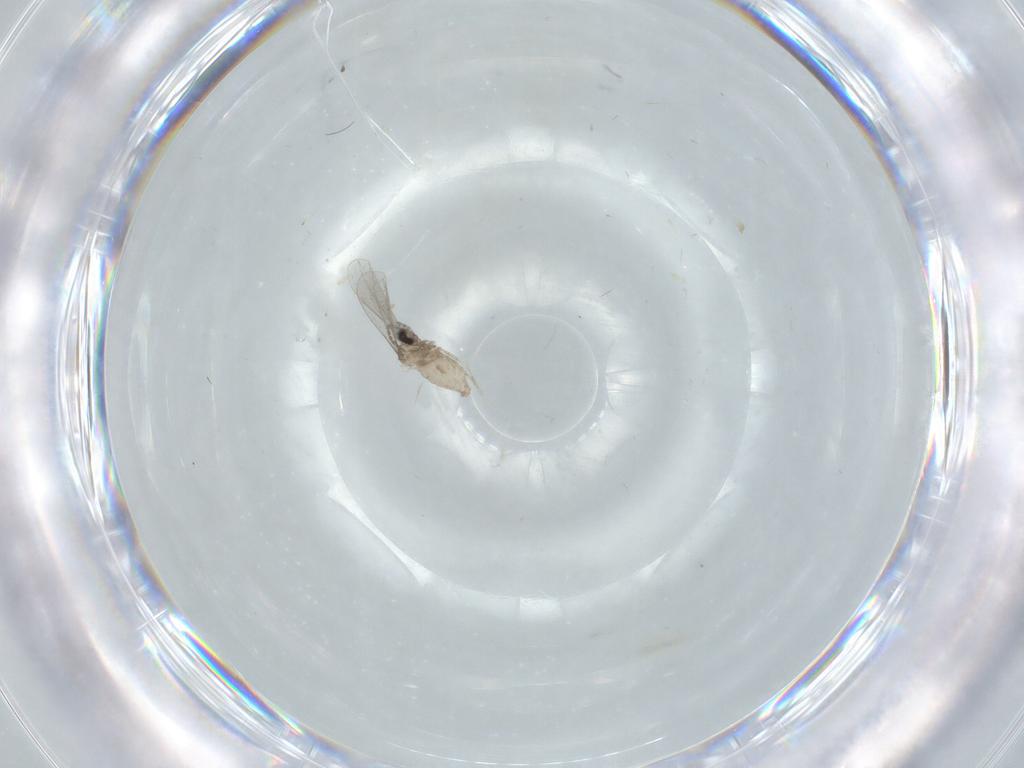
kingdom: Animalia
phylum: Arthropoda
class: Insecta
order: Diptera
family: Cecidomyiidae
